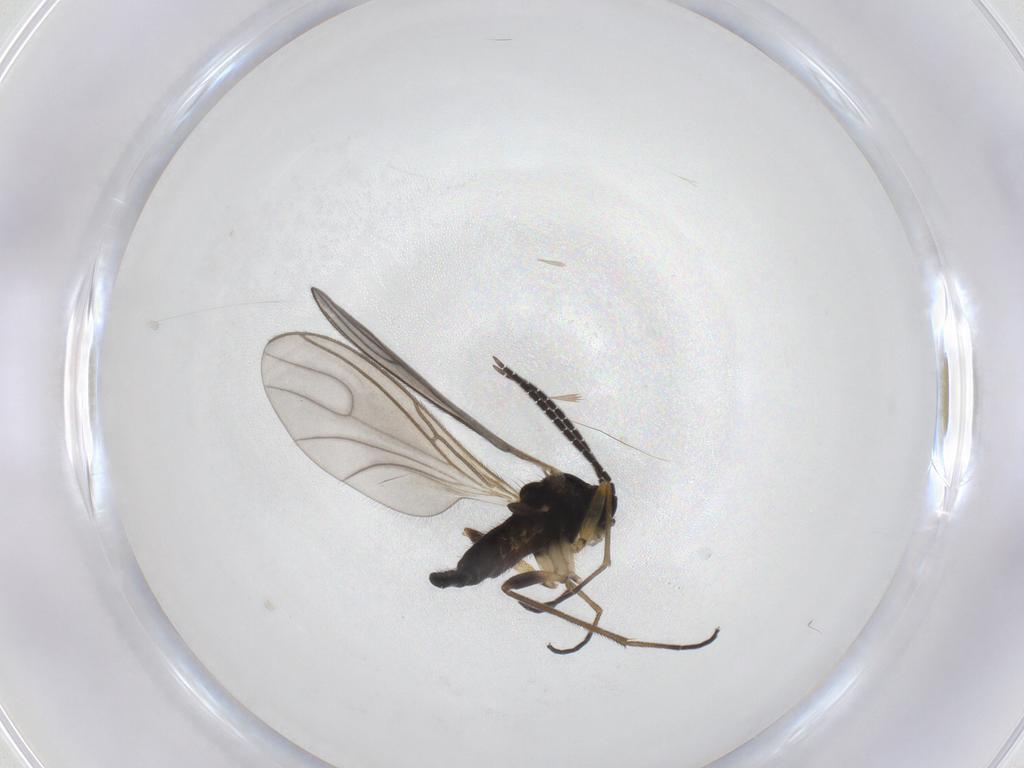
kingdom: Animalia
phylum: Arthropoda
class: Insecta
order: Diptera
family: Sciaridae
